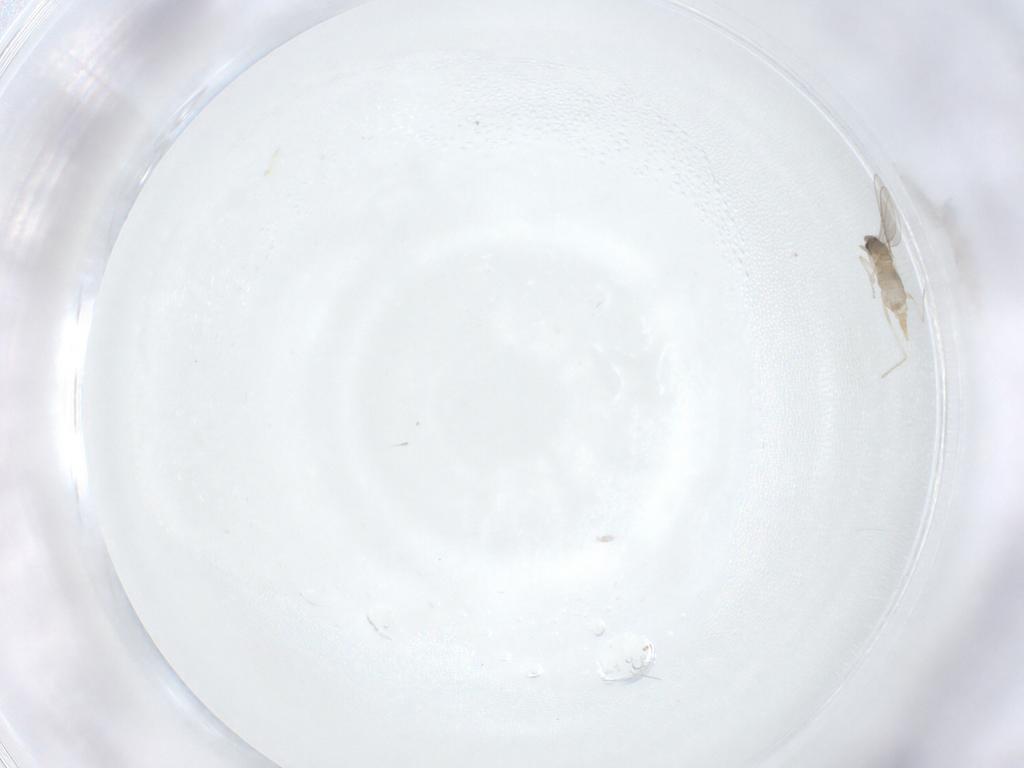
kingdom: Animalia
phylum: Arthropoda
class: Insecta
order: Diptera
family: Cecidomyiidae
